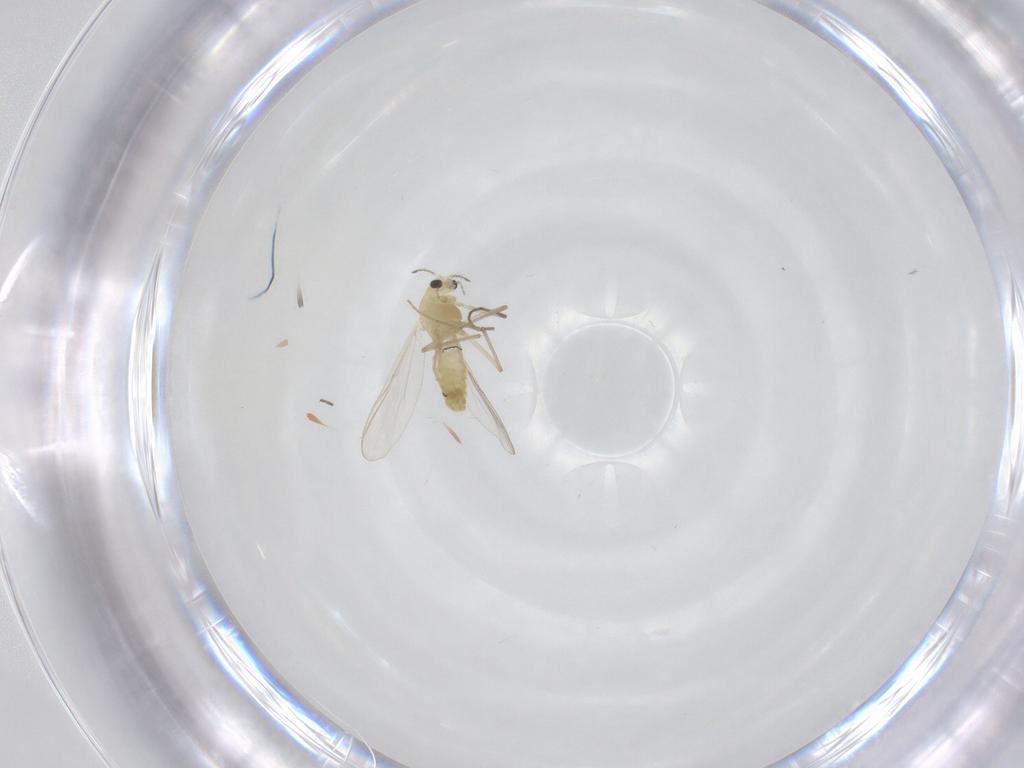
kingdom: Animalia
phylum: Arthropoda
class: Insecta
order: Diptera
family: Chironomidae
